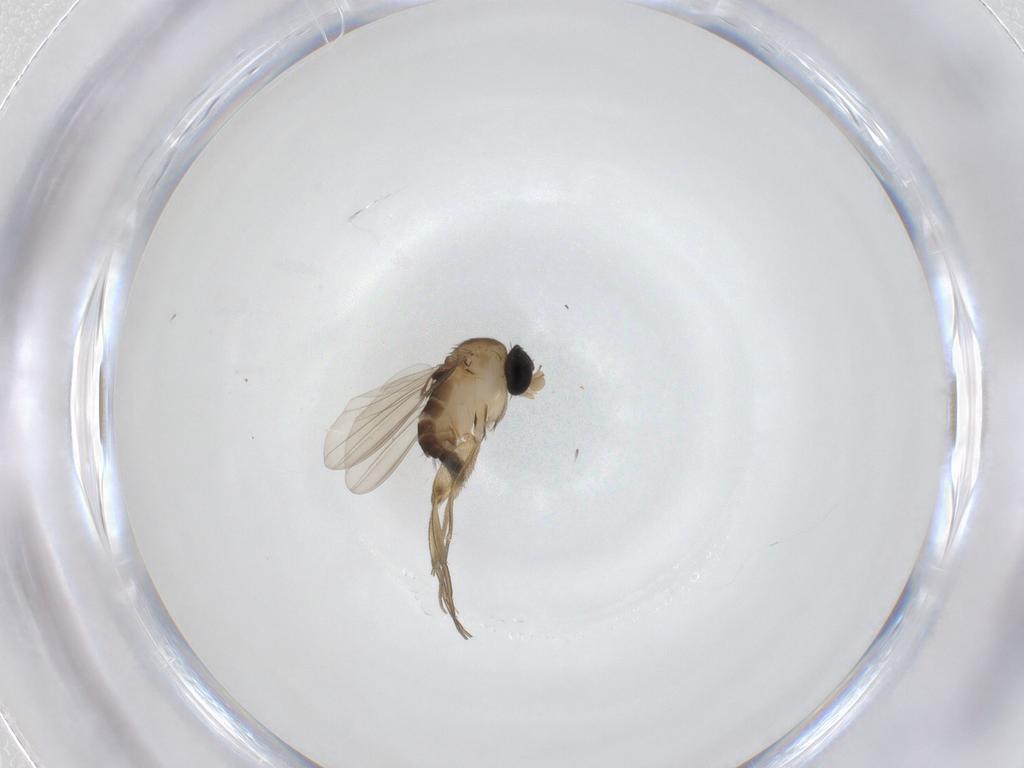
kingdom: Animalia
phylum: Arthropoda
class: Insecta
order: Diptera
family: Phoridae
